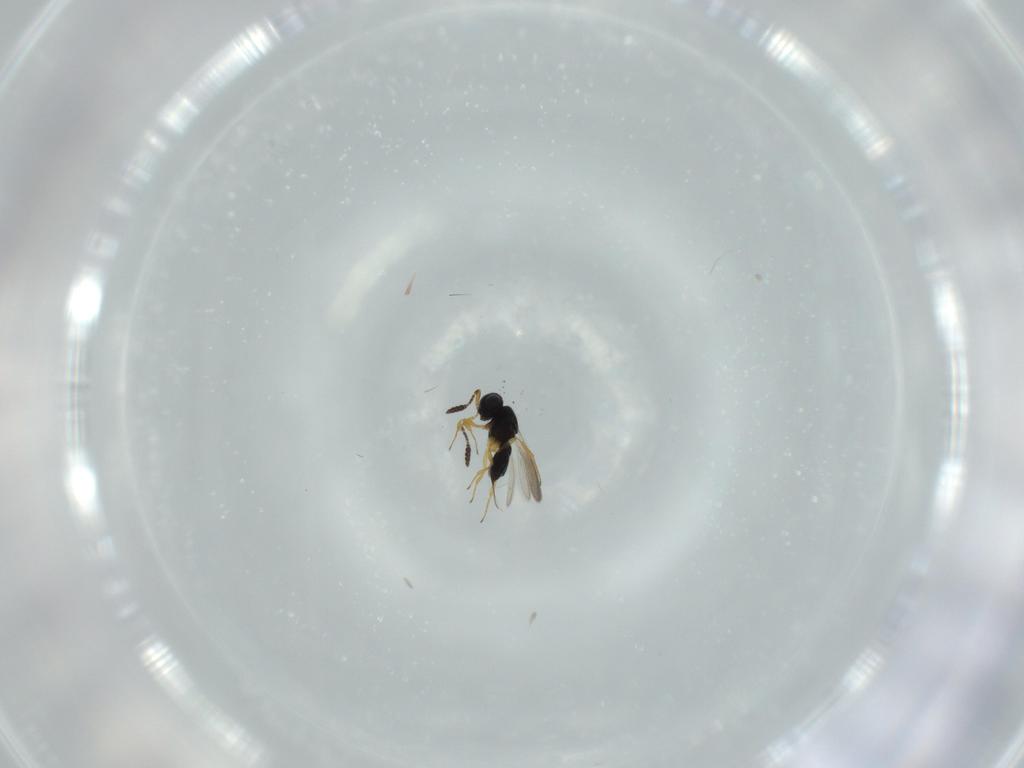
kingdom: Animalia
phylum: Arthropoda
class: Insecta
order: Hymenoptera
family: Scelionidae
